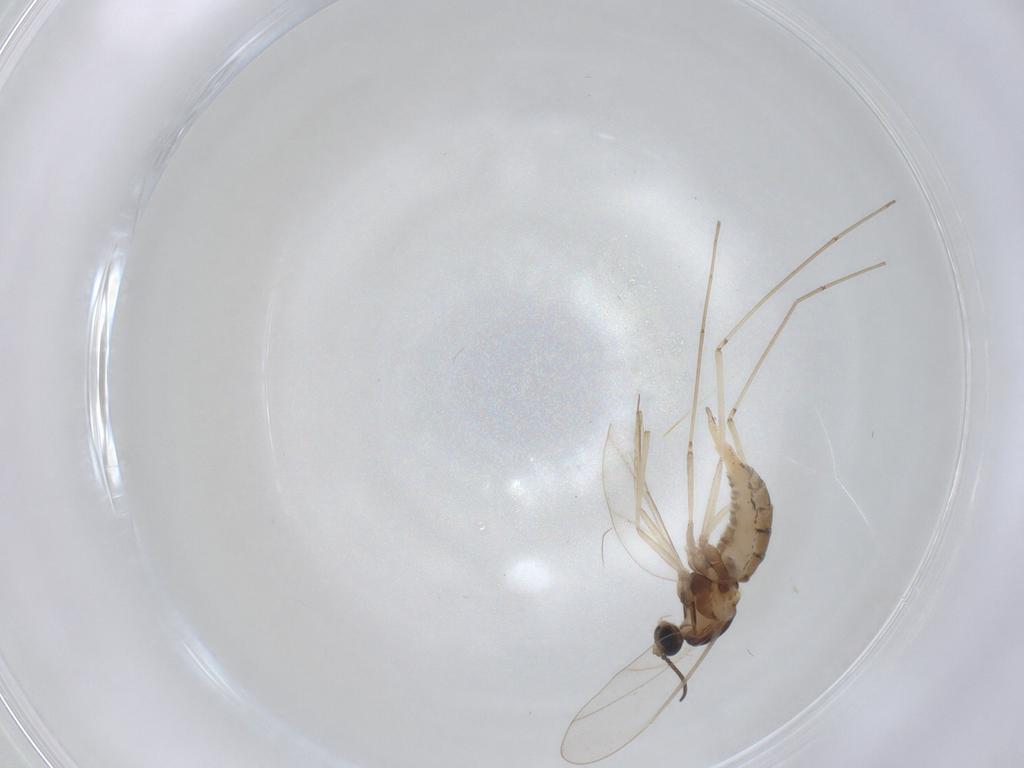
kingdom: Animalia
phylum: Arthropoda
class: Insecta
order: Diptera
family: Cecidomyiidae
